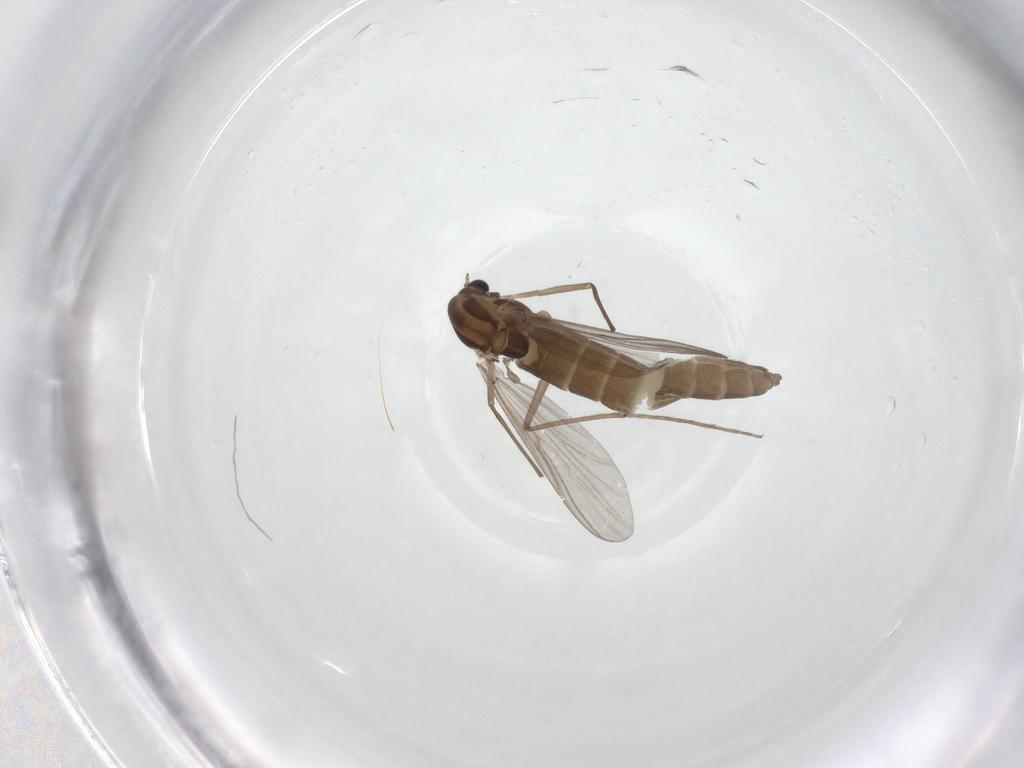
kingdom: Animalia
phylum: Arthropoda
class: Insecta
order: Diptera
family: Chironomidae
